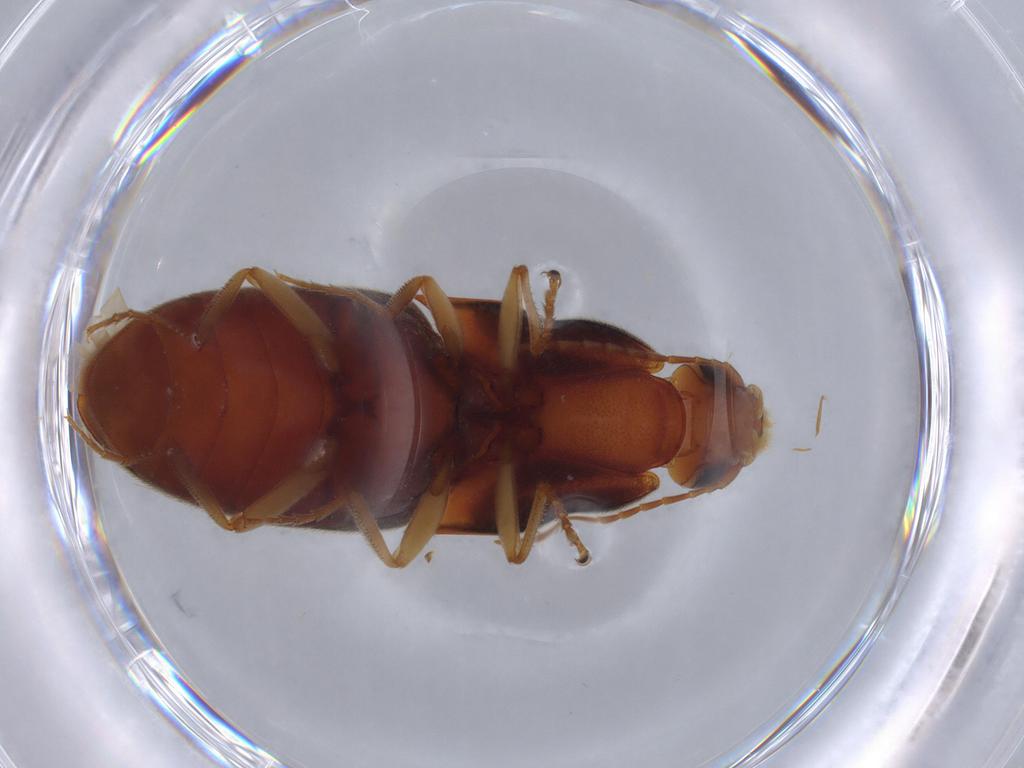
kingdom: Animalia
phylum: Arthropoda
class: Insecta
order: Coleoptera
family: Elateridae
